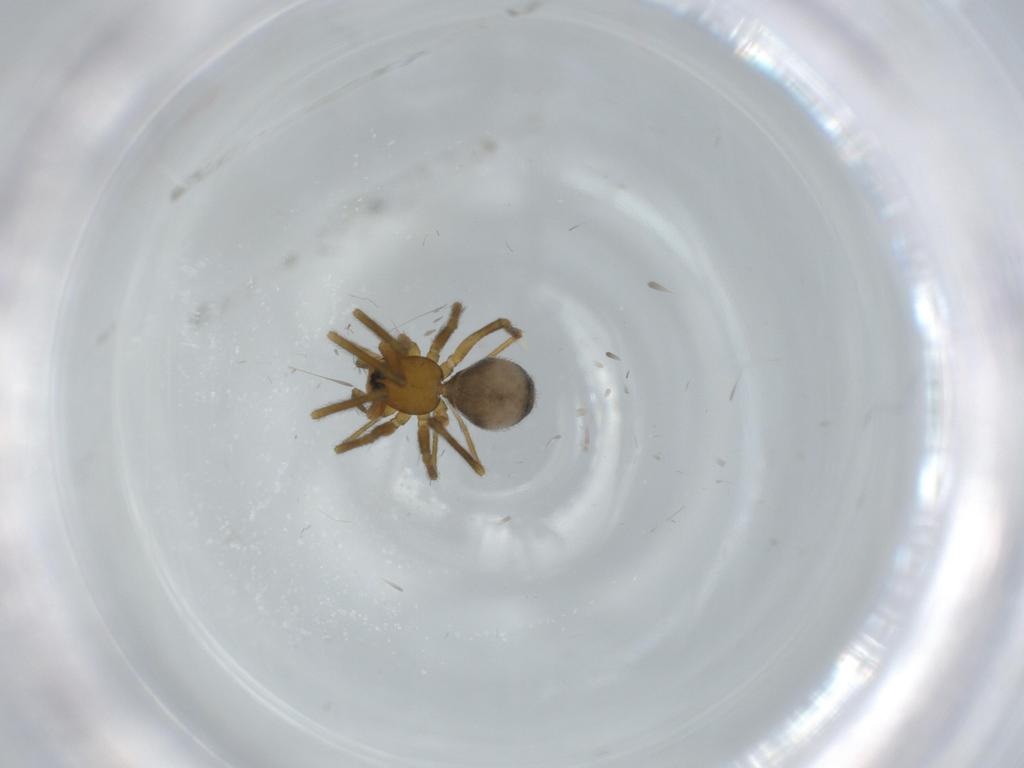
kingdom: Animalia
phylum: Arthropoda
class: Arachnida
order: Araneae
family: Linyphiidae
